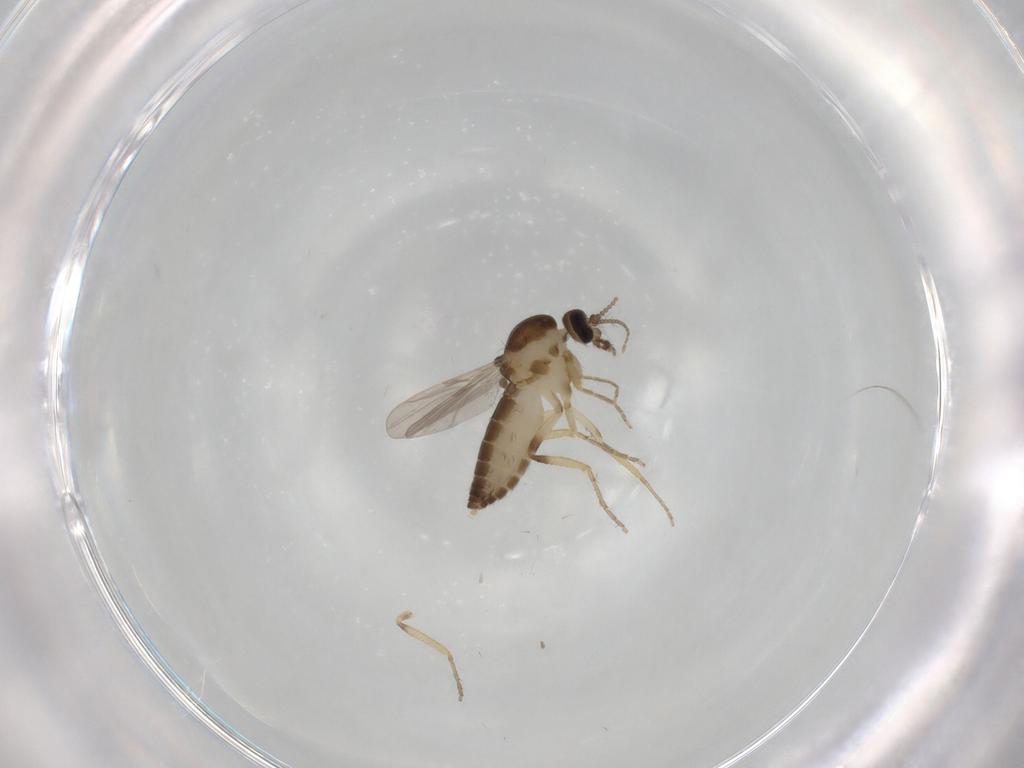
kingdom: Animalia
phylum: Arthropoda
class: Insecta
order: Diptera
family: Ceratopogonidae
